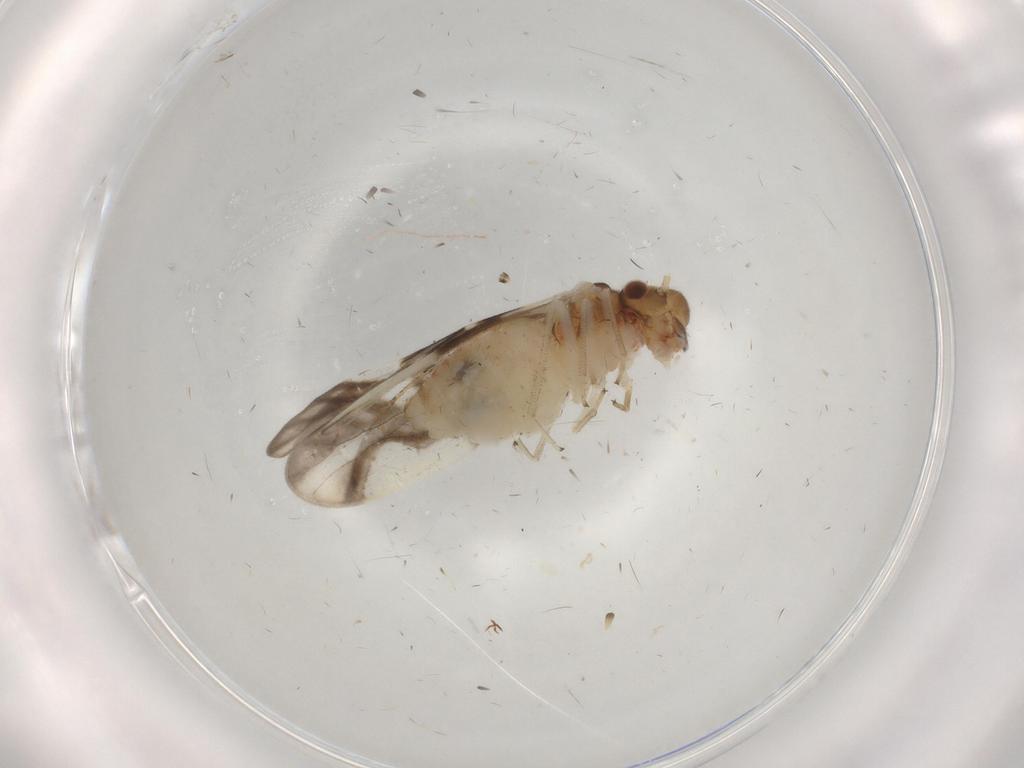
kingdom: Animalia
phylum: Arthropoda
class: Insecta
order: Psocodea
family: Caeciliusidae
